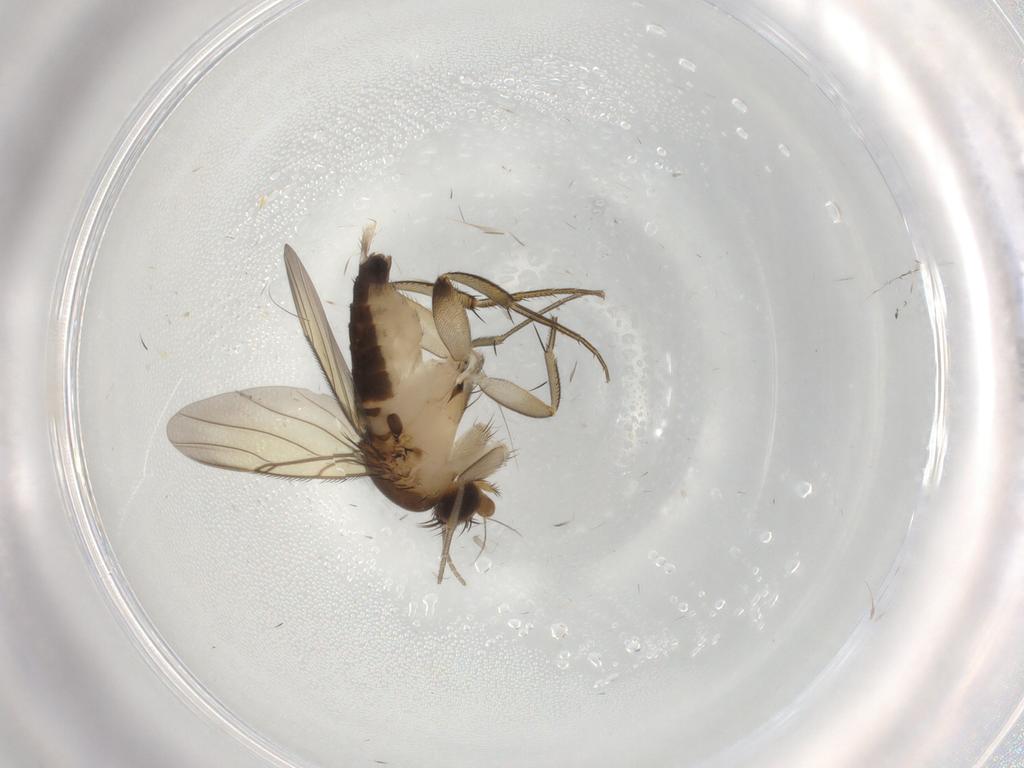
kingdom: Animalia
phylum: Arthropoda
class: Insecta
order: Diptera
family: Phoridae
